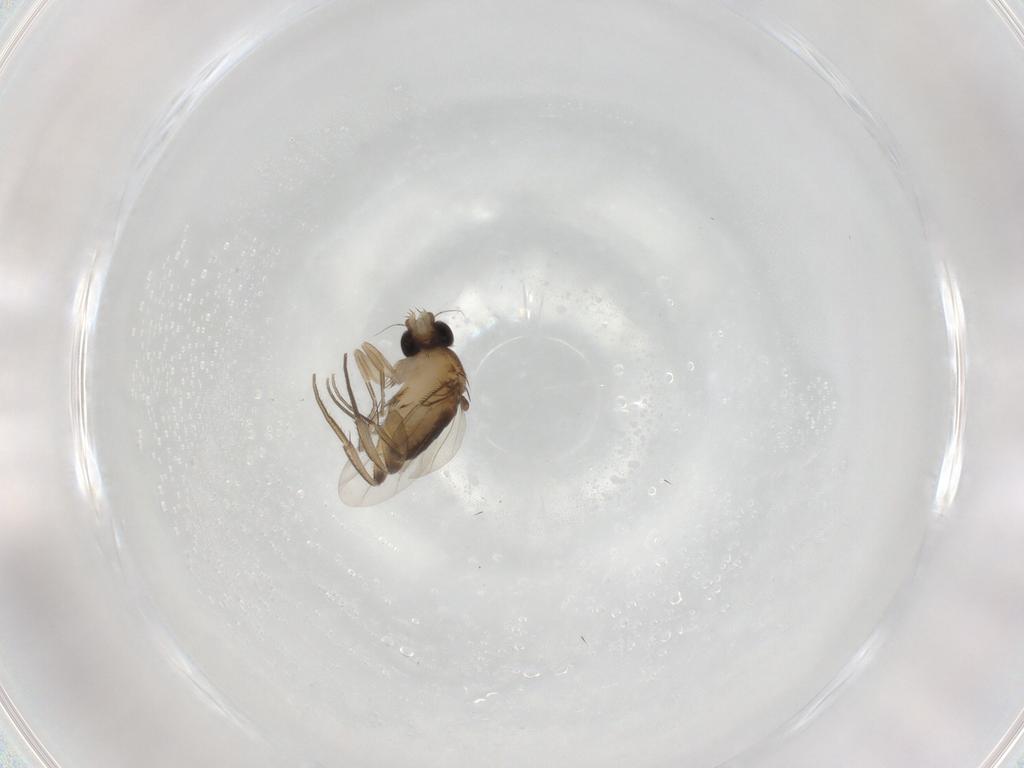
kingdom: Animalia
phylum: Arthropoda
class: Insecta
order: Diptera
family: Phoridae
